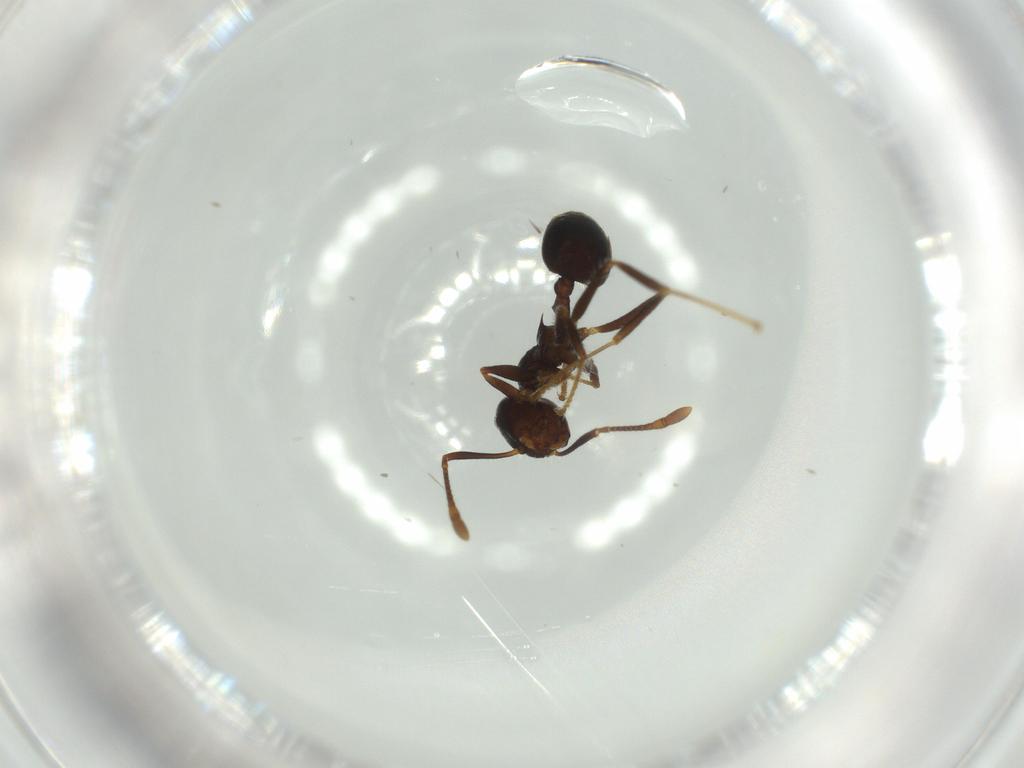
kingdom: Animalia
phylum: Arthropoda
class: Insecta
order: Hymenoptera
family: Formicidae
